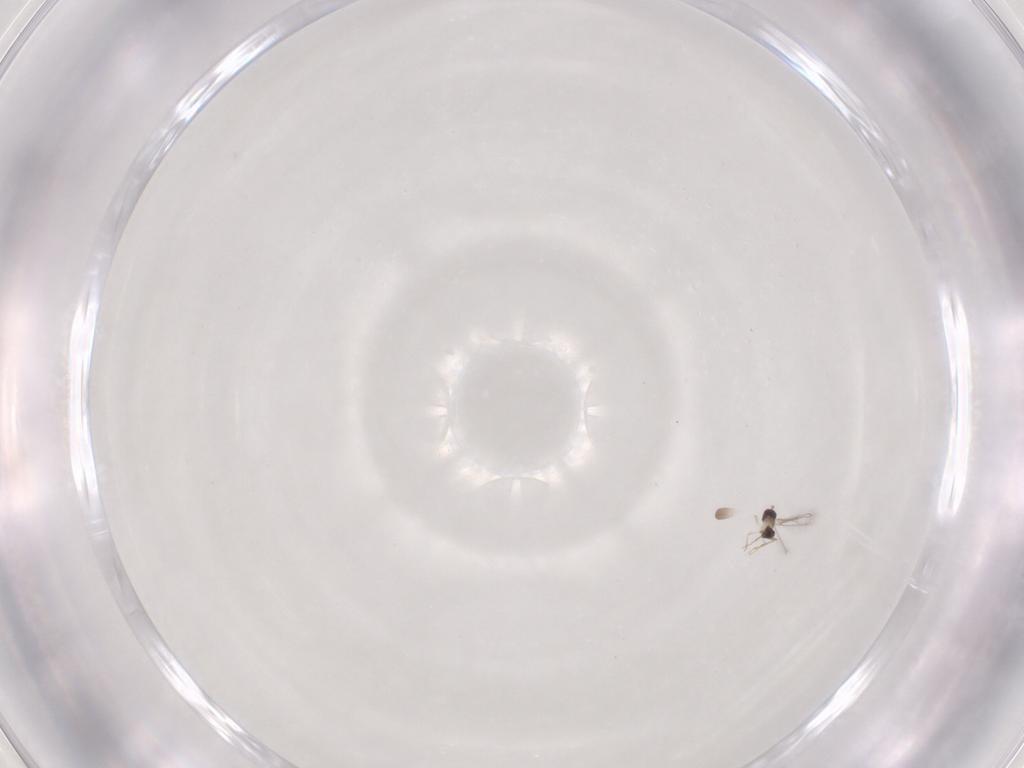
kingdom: Animalia
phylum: Arthropoda
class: Insecta
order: Hymenoptera
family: Mymaridae
